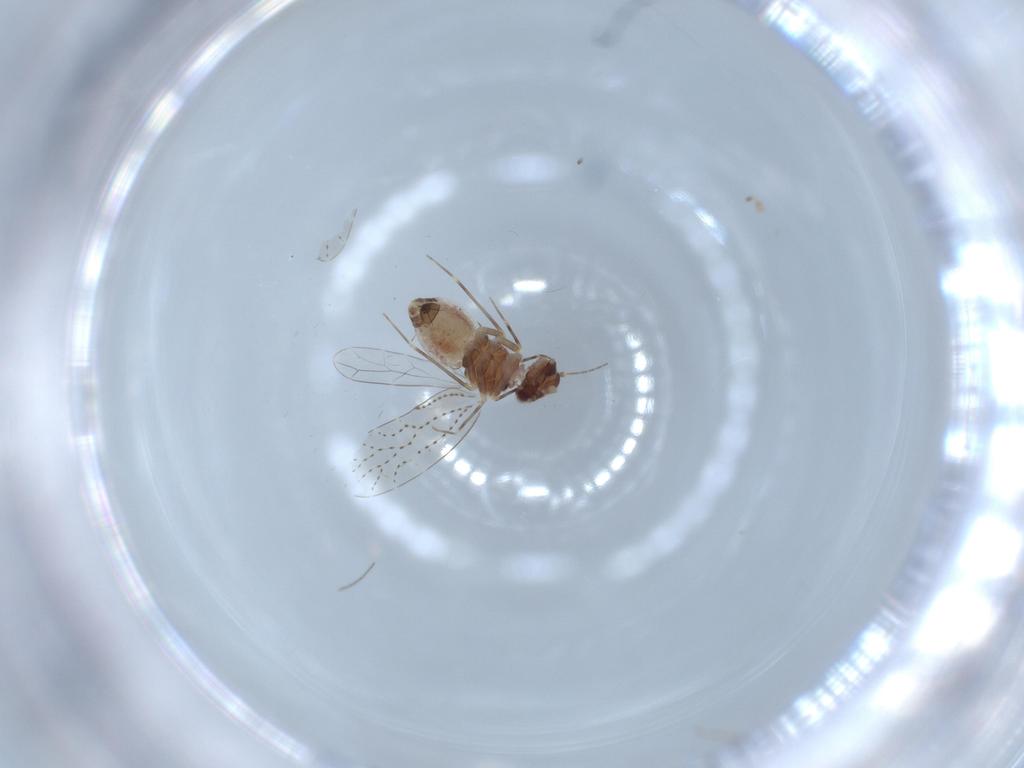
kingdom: Animalia
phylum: Arthropoda
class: Insecta
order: Psocodea
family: Musapsocidae
